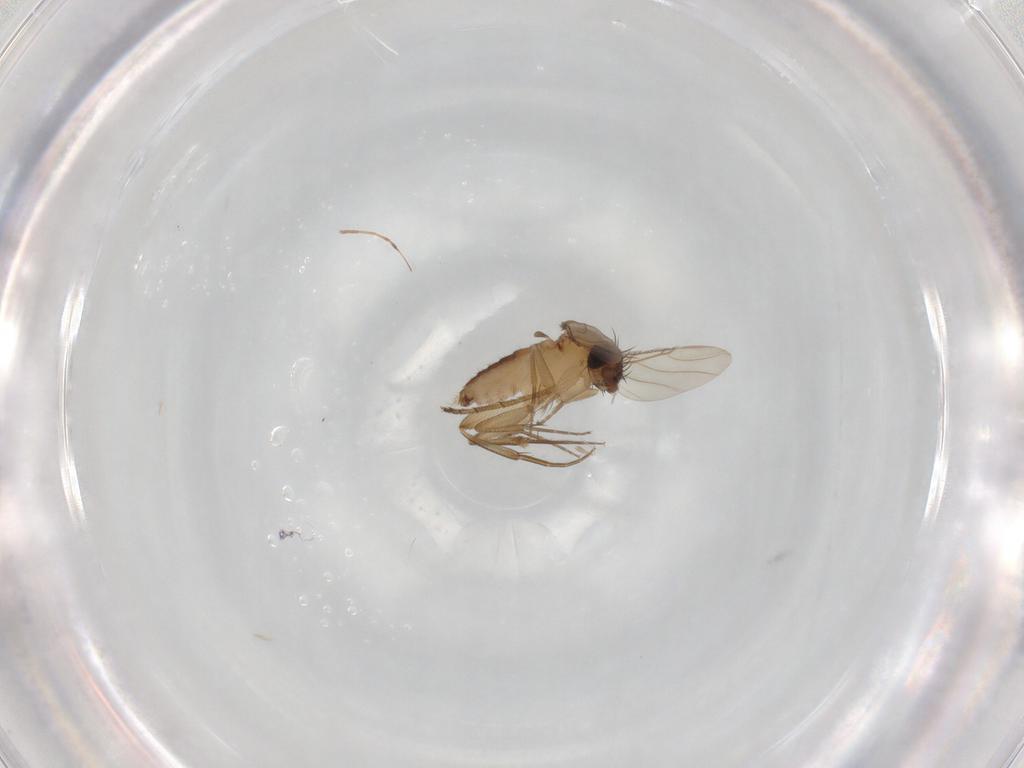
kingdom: Animalia
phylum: Arthropoda
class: Insecta
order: Diptera
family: Phoridae
